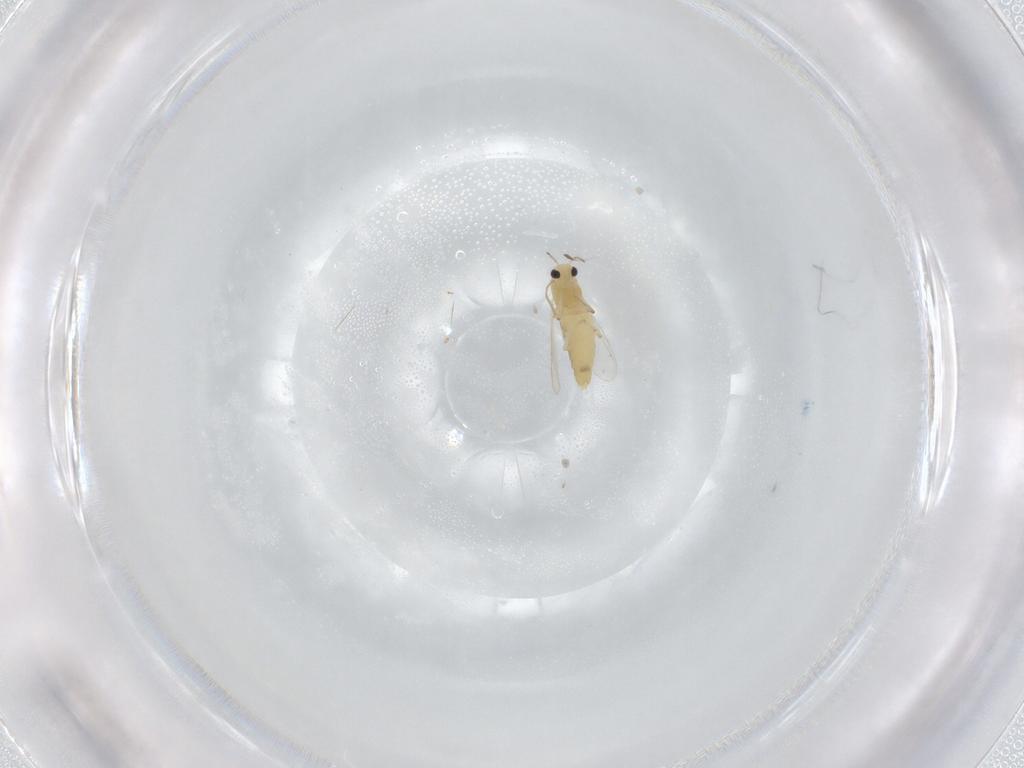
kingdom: Animalia
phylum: Arthropoda
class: Insecta
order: Diptera
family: Chironomidae
